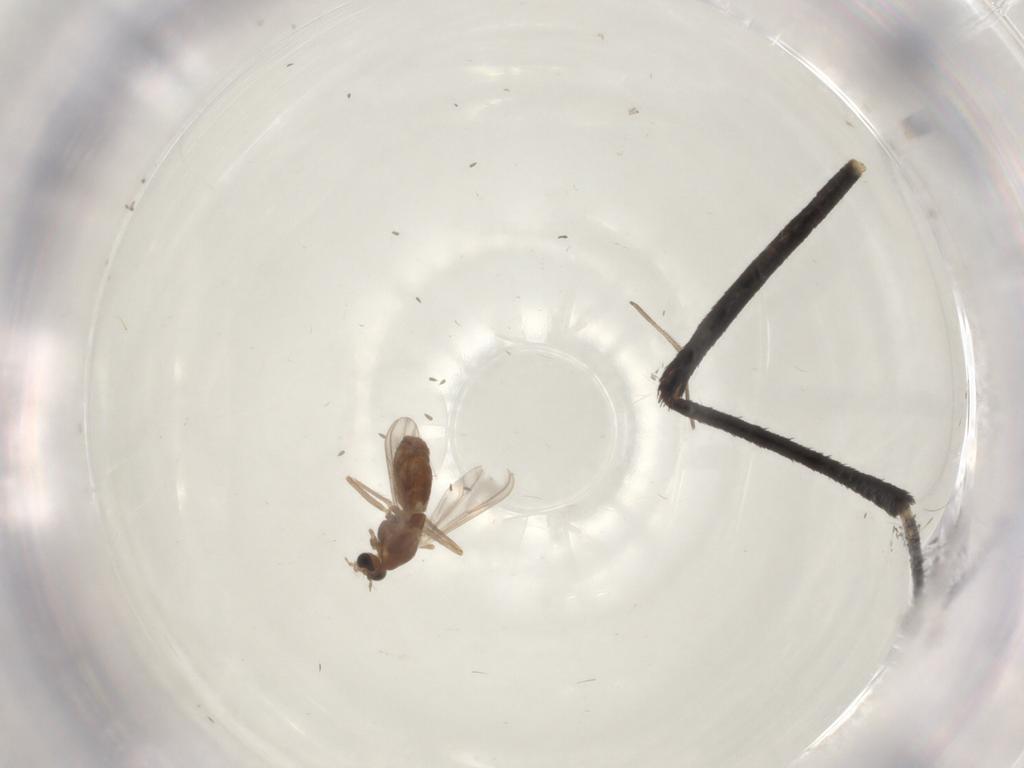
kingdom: Animalia
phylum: Arthropoda
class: Insecta
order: Diptera
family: Chironomidae
